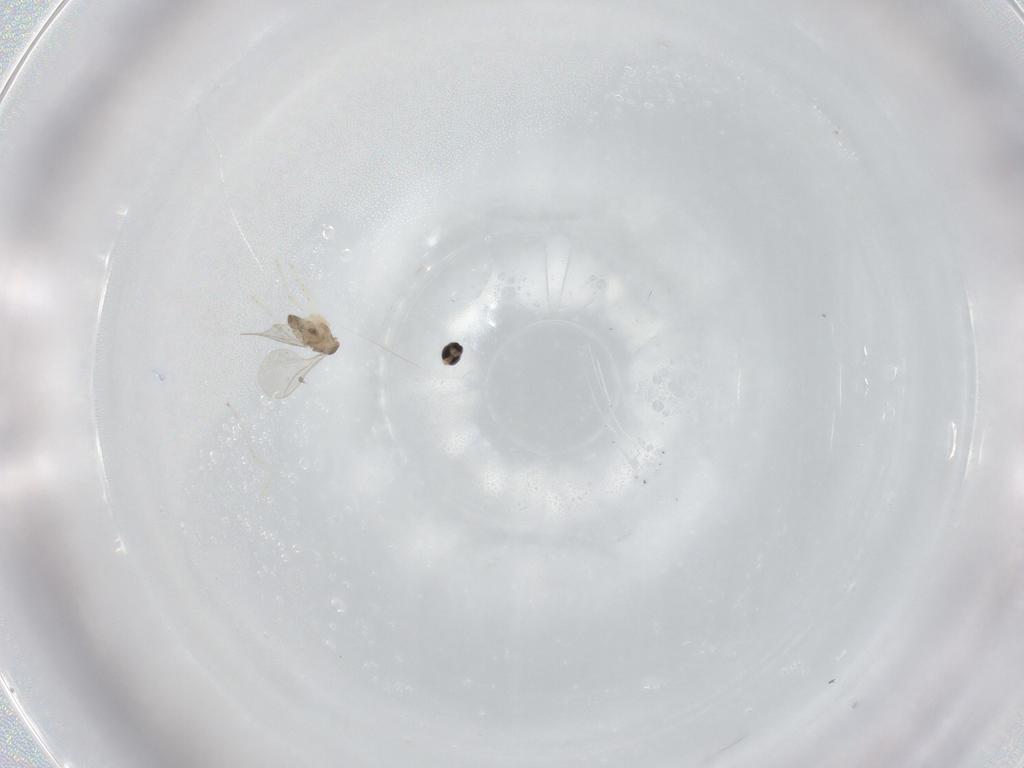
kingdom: Animalia
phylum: Arthropoda
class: Insecta
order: Diptera
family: Cecidomyiidae
